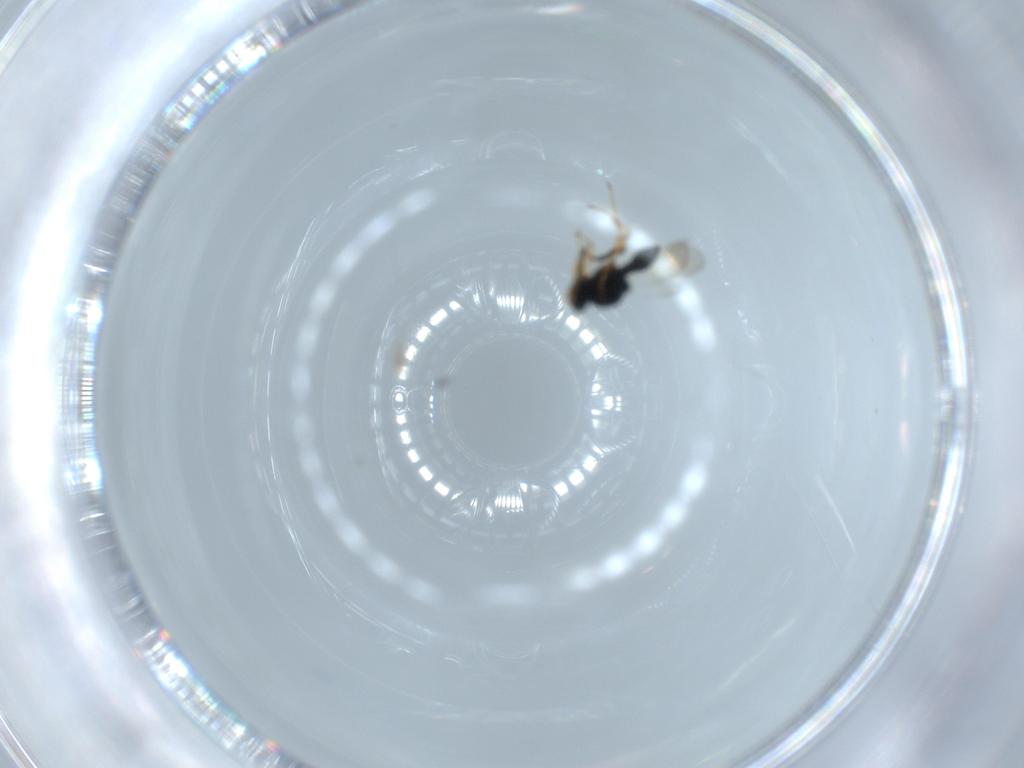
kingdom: Animalia
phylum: Arthropoda
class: Insecta
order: Hymenoptera
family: Platygastridae
